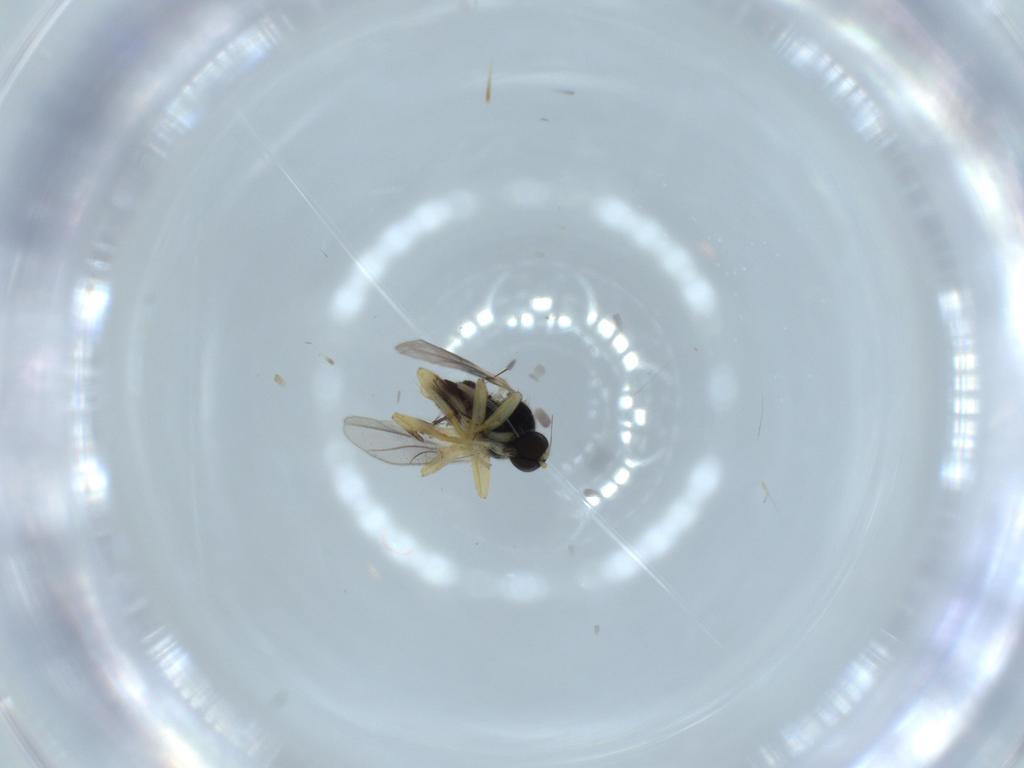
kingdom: Animalia
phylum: Arthropoda
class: Insecta
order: Diptera
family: Hybotidae
